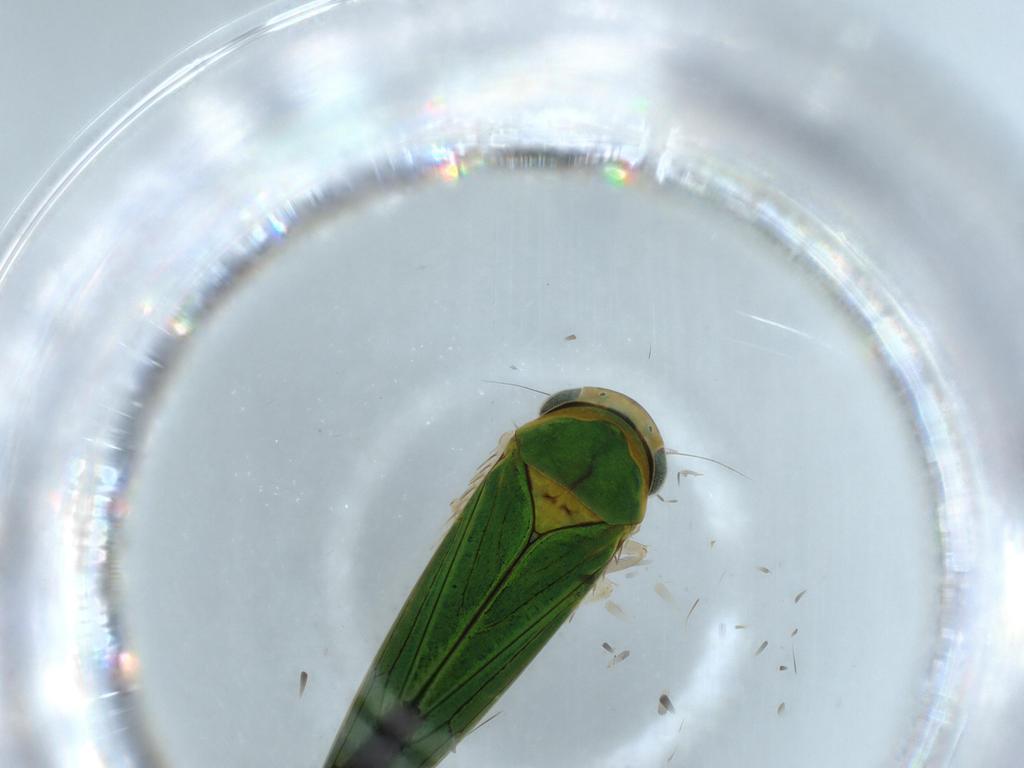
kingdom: Animalia
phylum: Arthropoda
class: Insecta
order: Hemiptera
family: Cicadellidae
